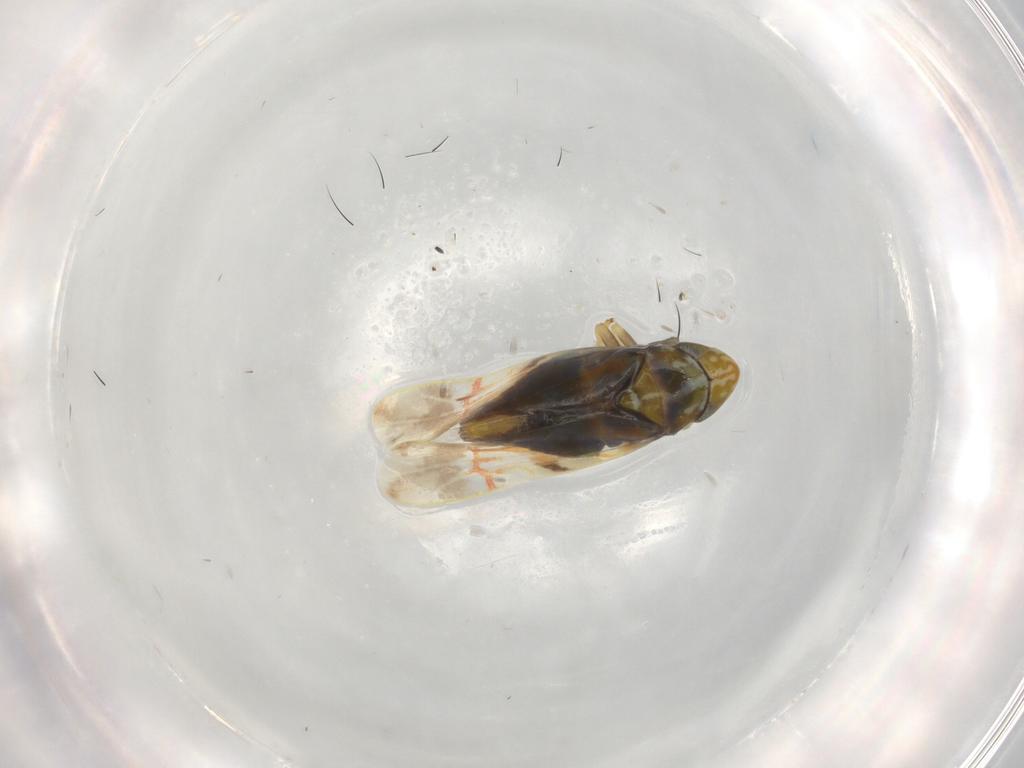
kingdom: Animalia
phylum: Arthropoda
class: Insecta
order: Hemiptera
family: Cicadellidae
